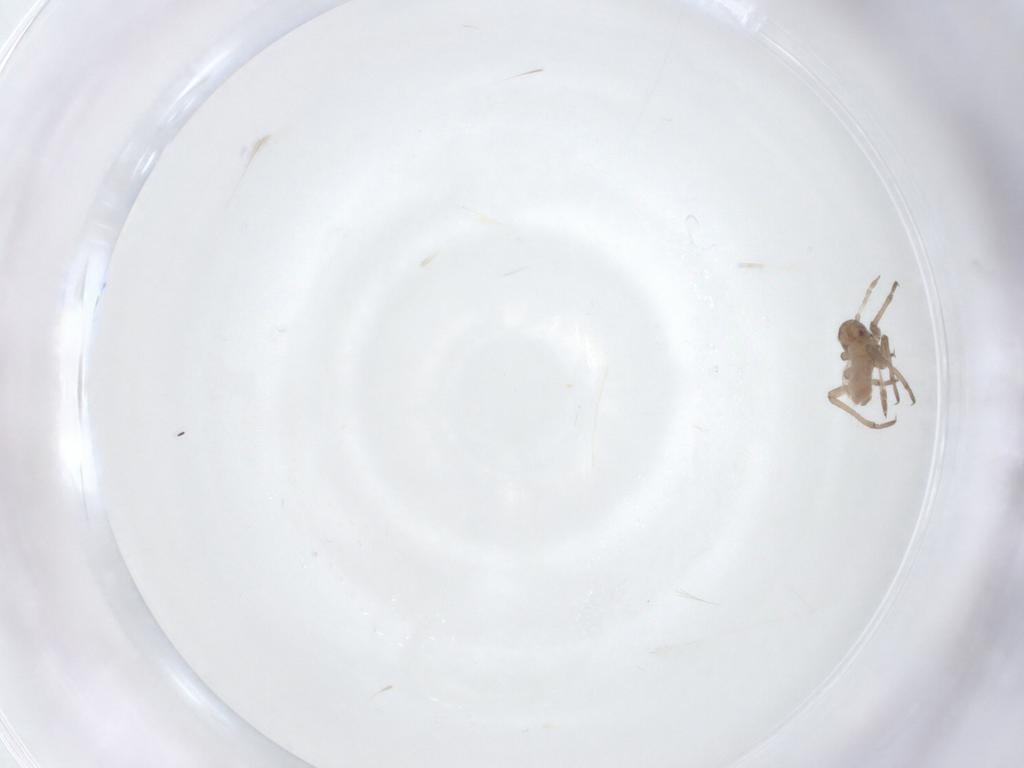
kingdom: Animalia
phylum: Arthropoda
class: Insecta
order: Hemiptera
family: Aphididae
